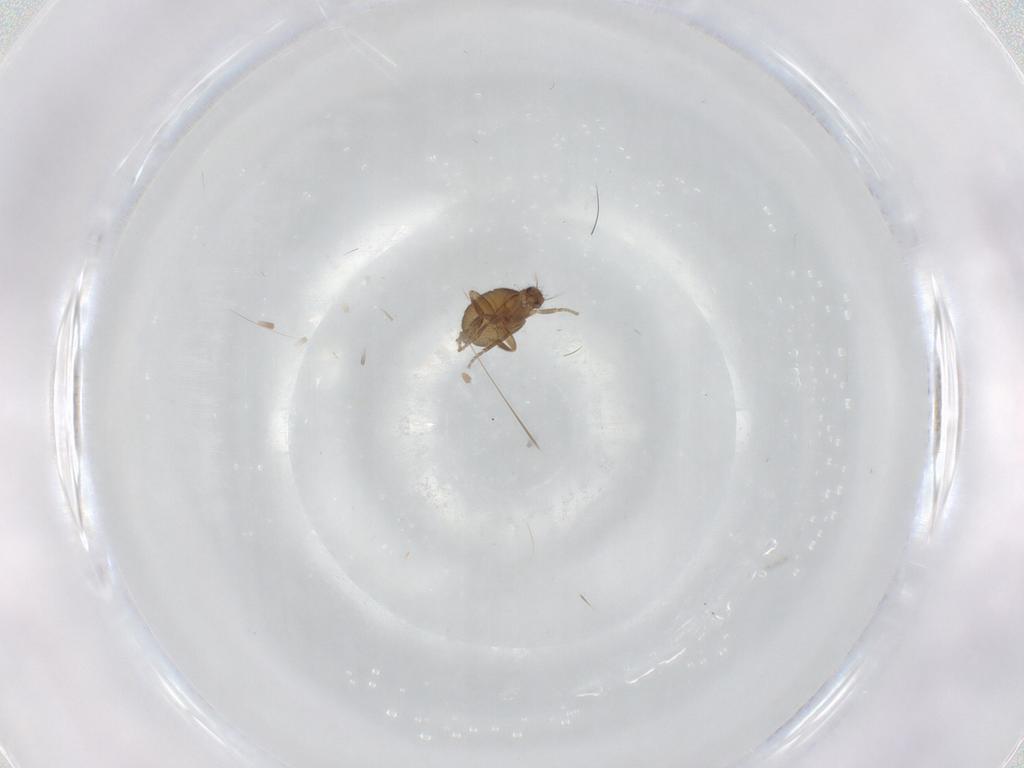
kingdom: Animalia
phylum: Arthropoda
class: Insecta
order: Diptera
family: Phoridae
